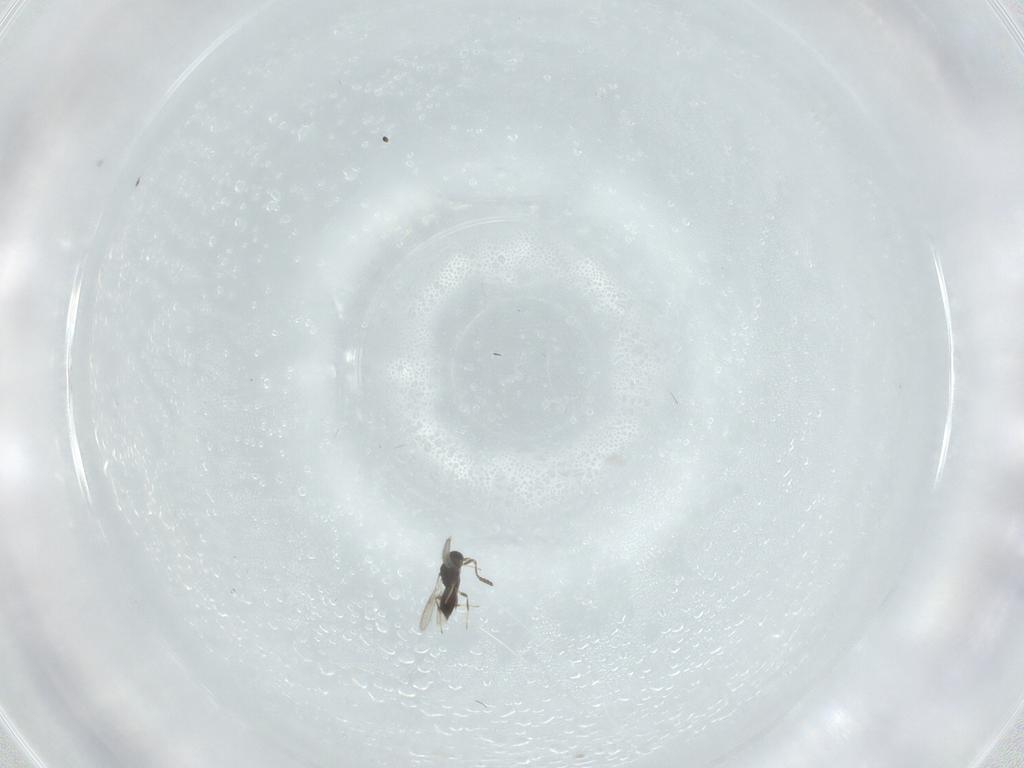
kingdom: Animalia
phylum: Arthropoda
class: Insecta
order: Hymenoptera
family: Scelionidae
